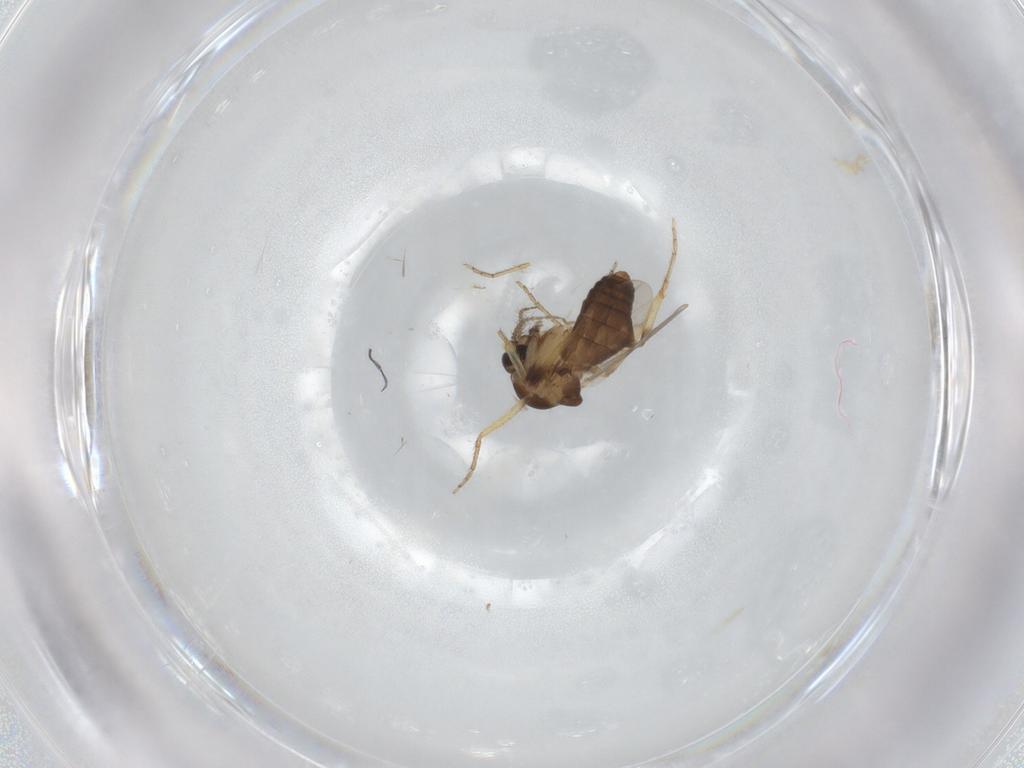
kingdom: Animalia
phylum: Arthropoda
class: Insecta
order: Diptera
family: Ceratopogonidae
